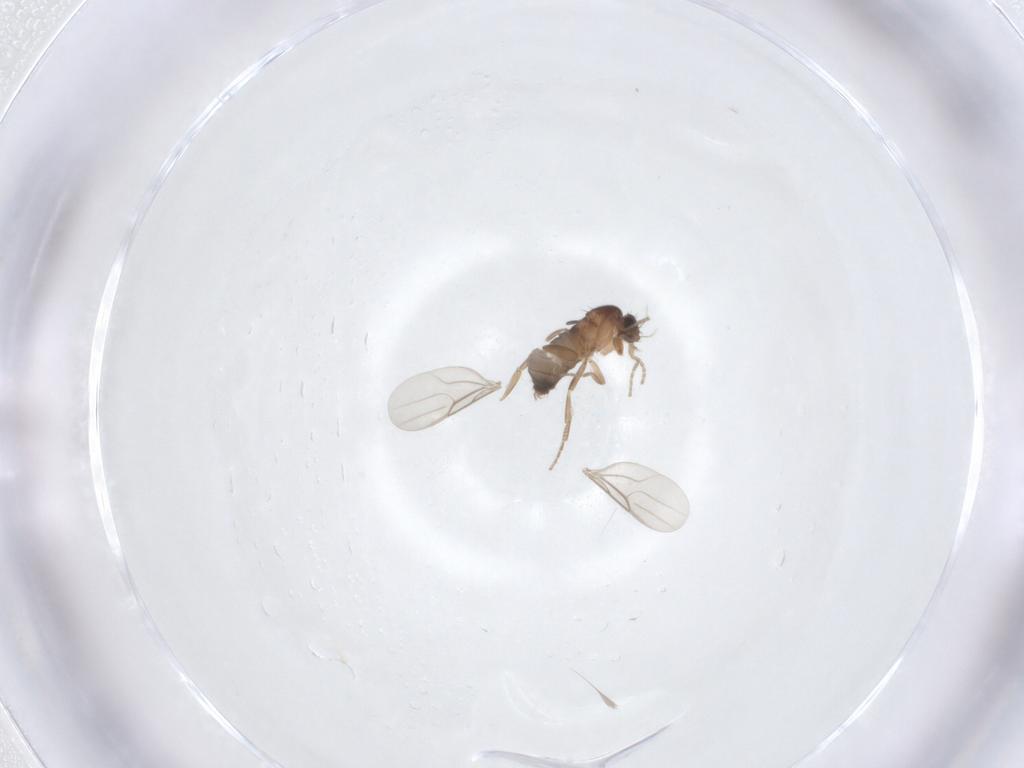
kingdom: Animalia
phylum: Arthropoda
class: Insecta
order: Diptera
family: Phoridae
